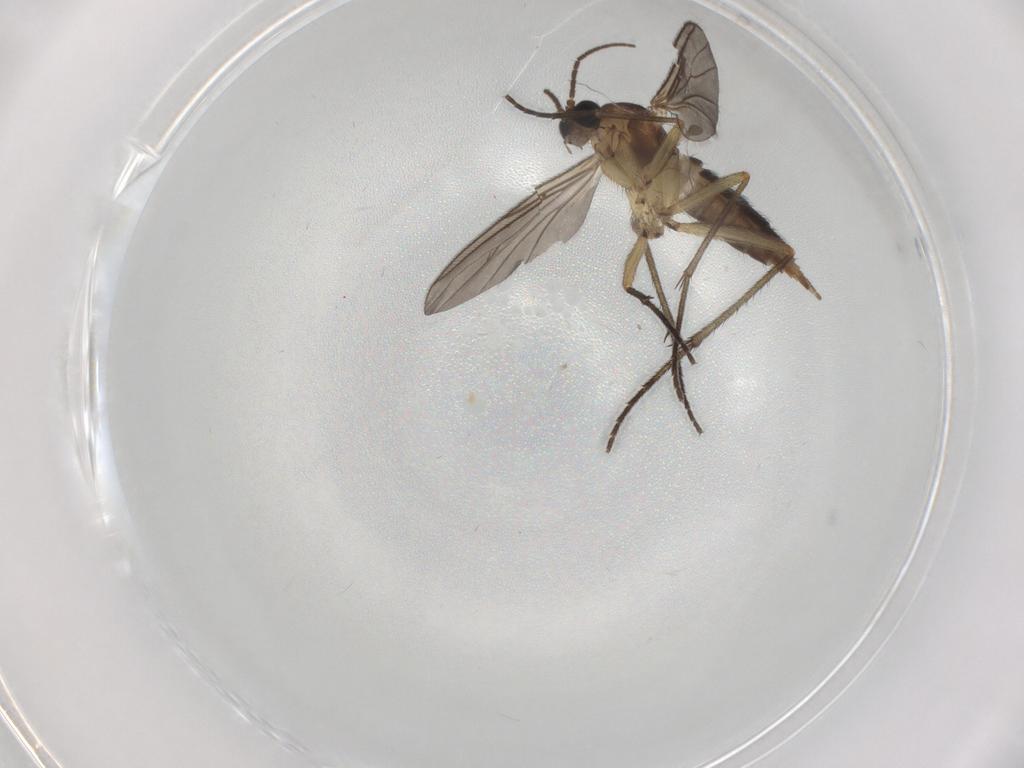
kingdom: Animalia
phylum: Arthropoda
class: Insecta
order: Diptera
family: Sciaridae
